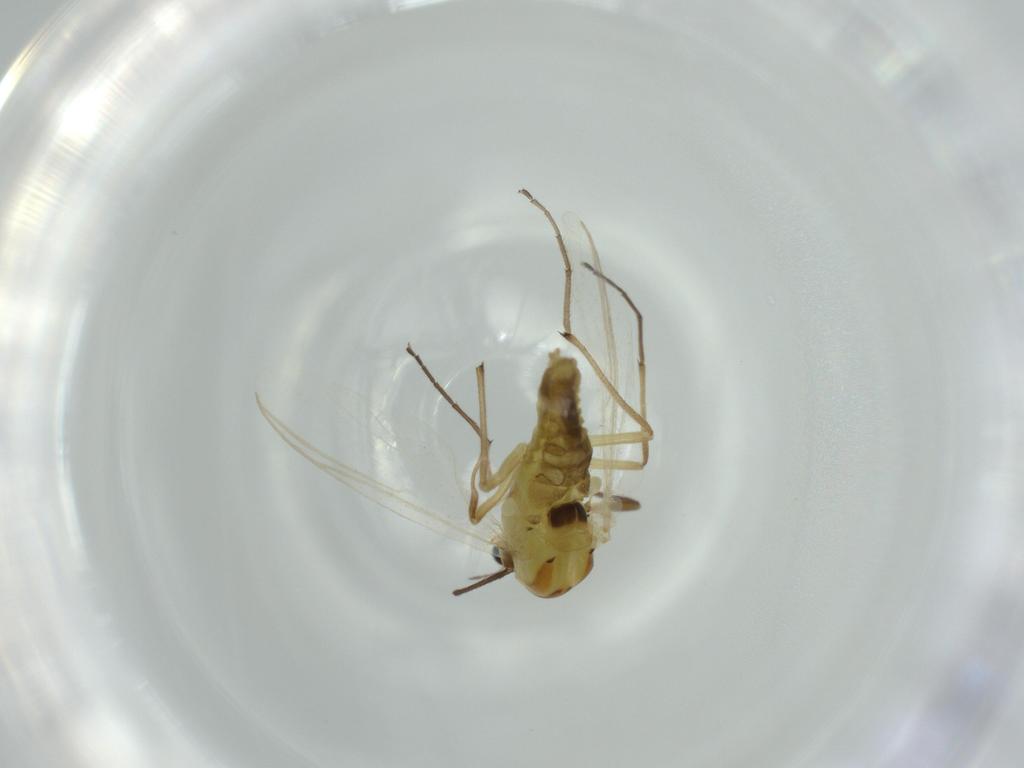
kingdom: Animalia
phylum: Arthropoda
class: Insecta
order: Diptera
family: Chironomidae
